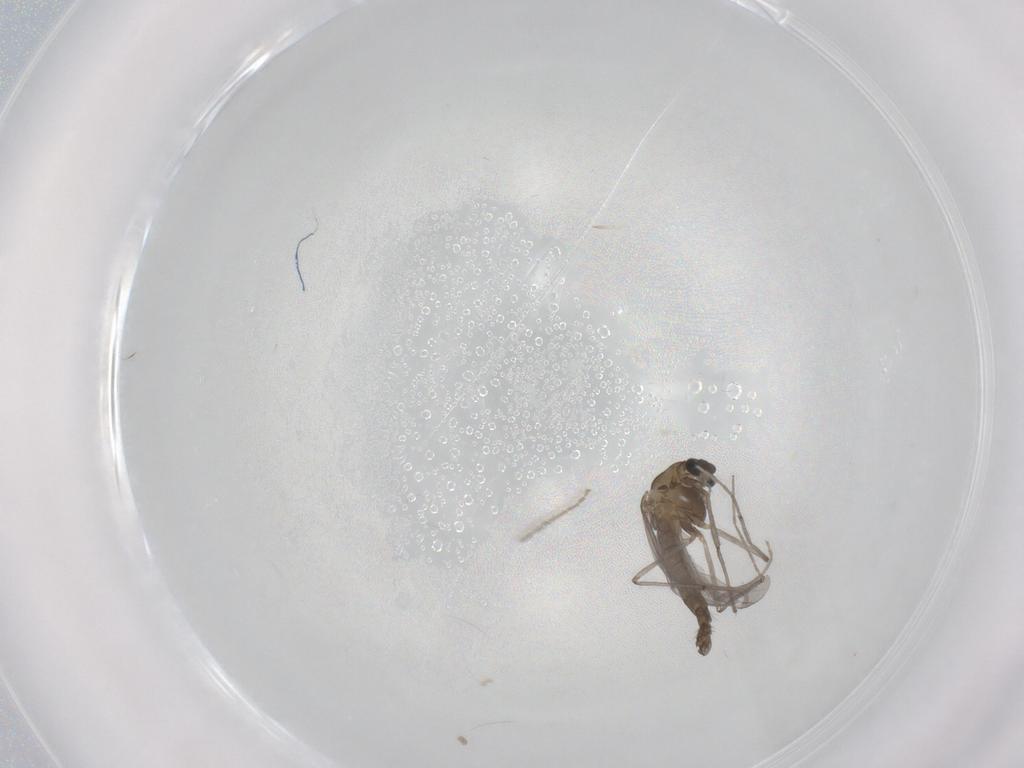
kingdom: Animalia
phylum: Arthropoda
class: Insecta
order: Diptera
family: Chironomidae
